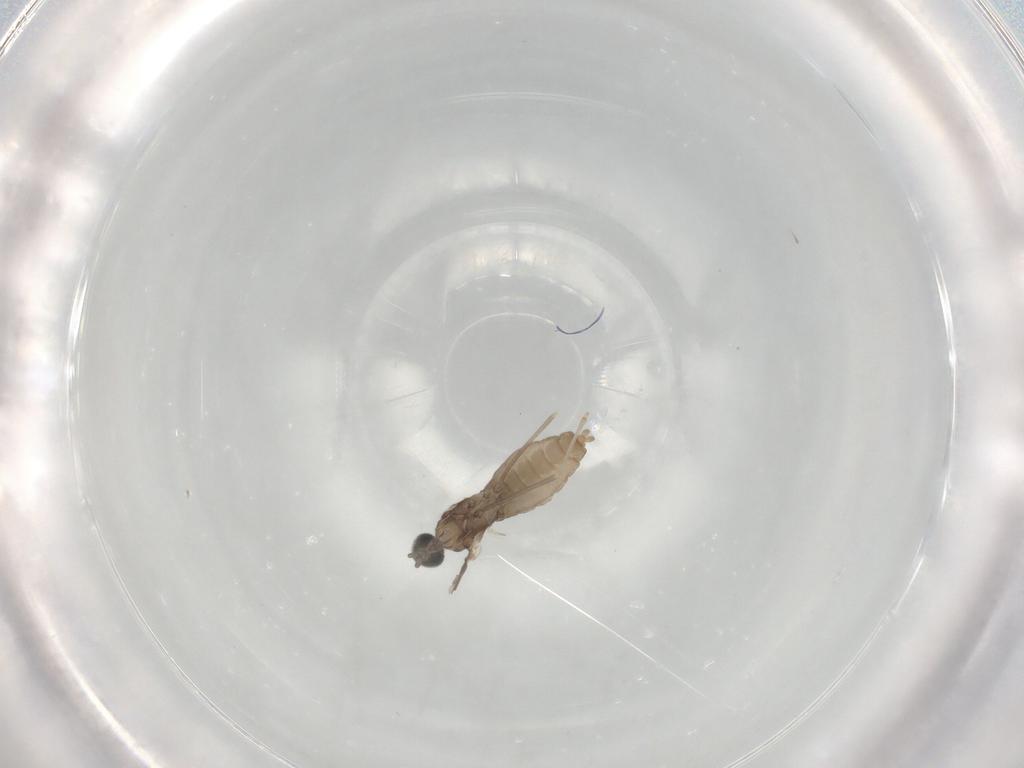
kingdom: Animalia
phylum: Arthropoda
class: Insecta
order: Diptera
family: Cecidomyiidae
